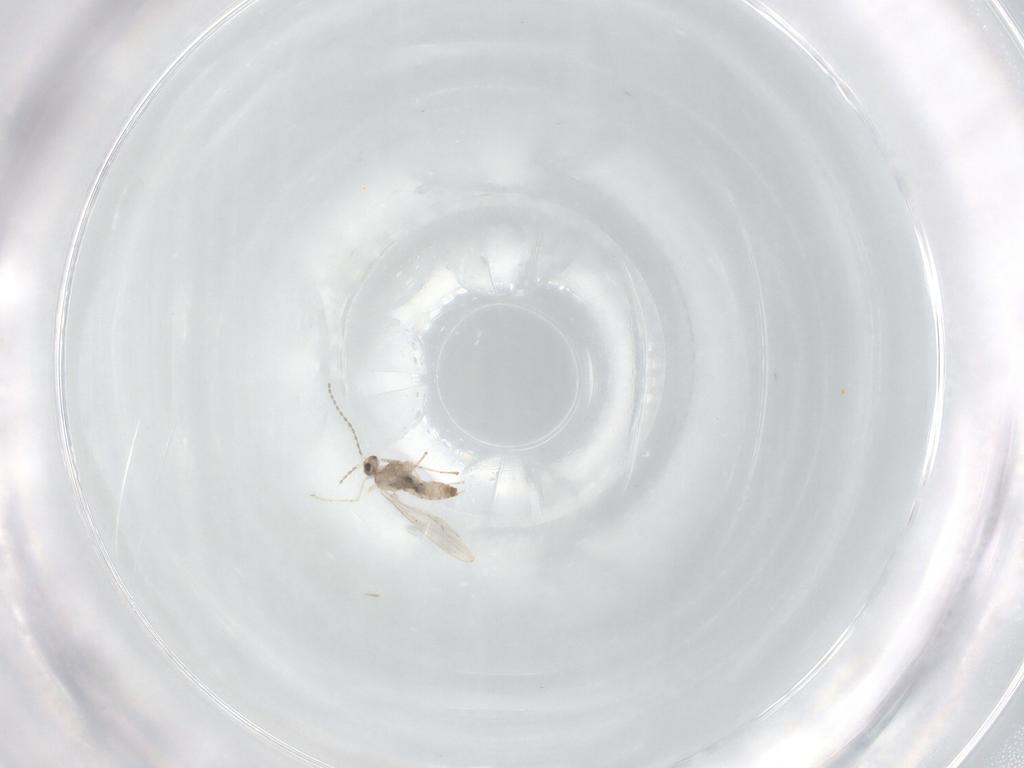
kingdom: Animalia
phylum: Arthropoda
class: Insecta
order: Diptera
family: Cecidomyiidae
